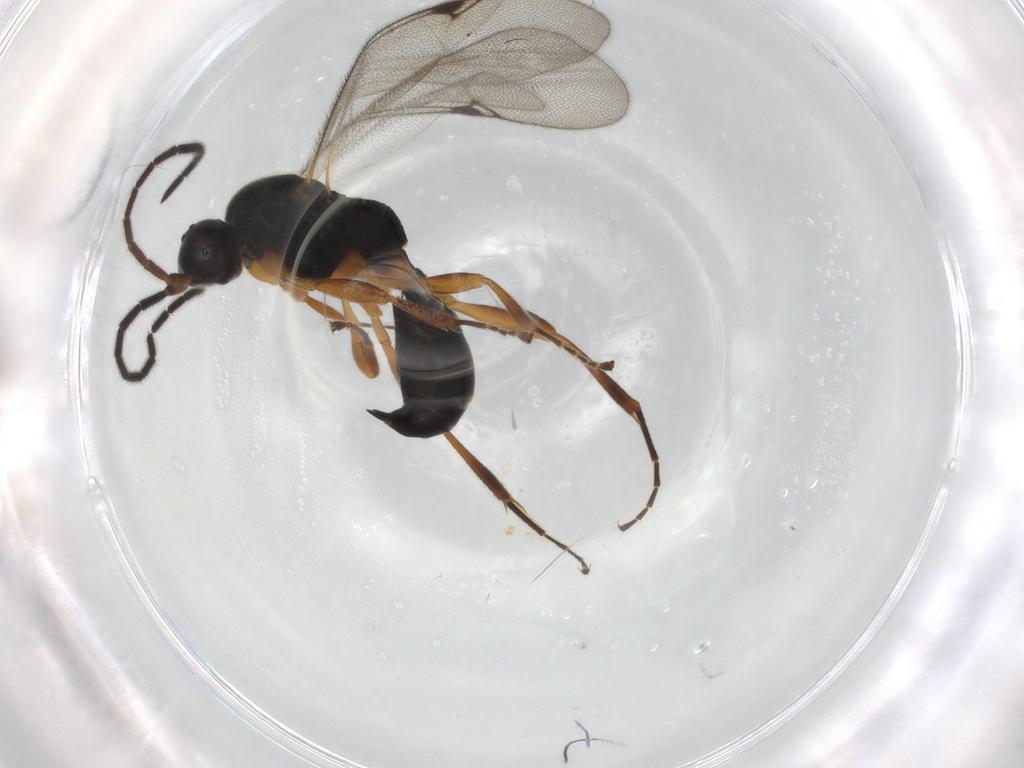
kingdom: Animalia
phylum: Arthropoda
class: Insecta
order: Hymenoptera
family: Proctotrupidae
